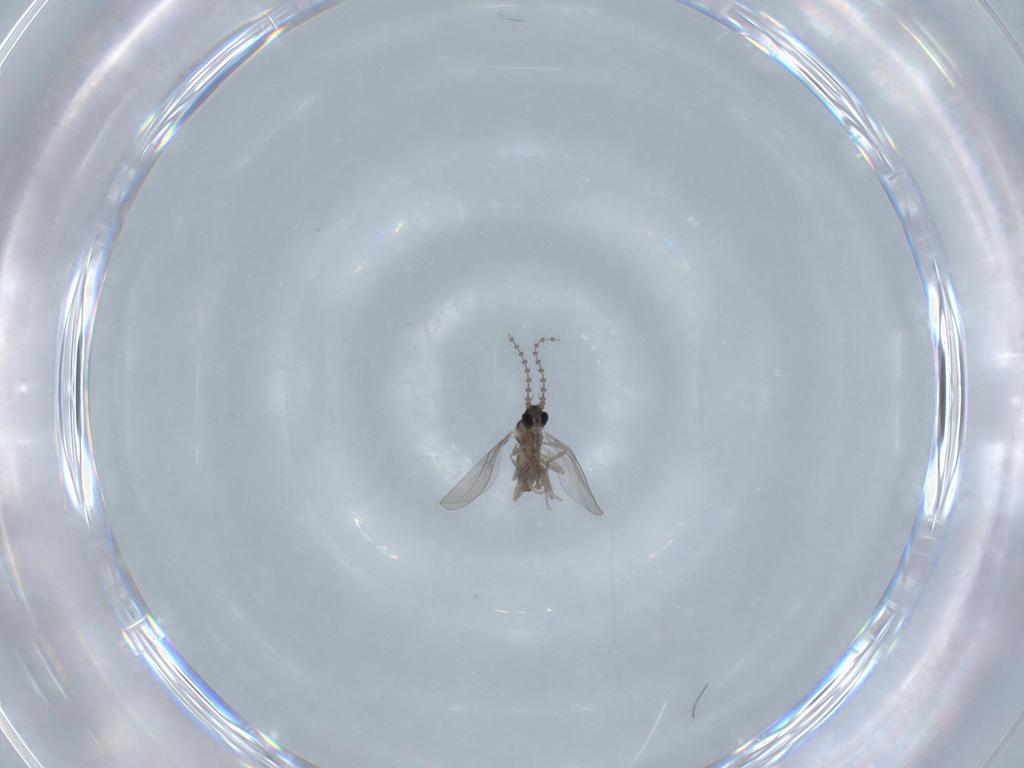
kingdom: Animalia
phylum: Arthropoda
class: Insecta
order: Diptera
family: Cecidomyiidae
